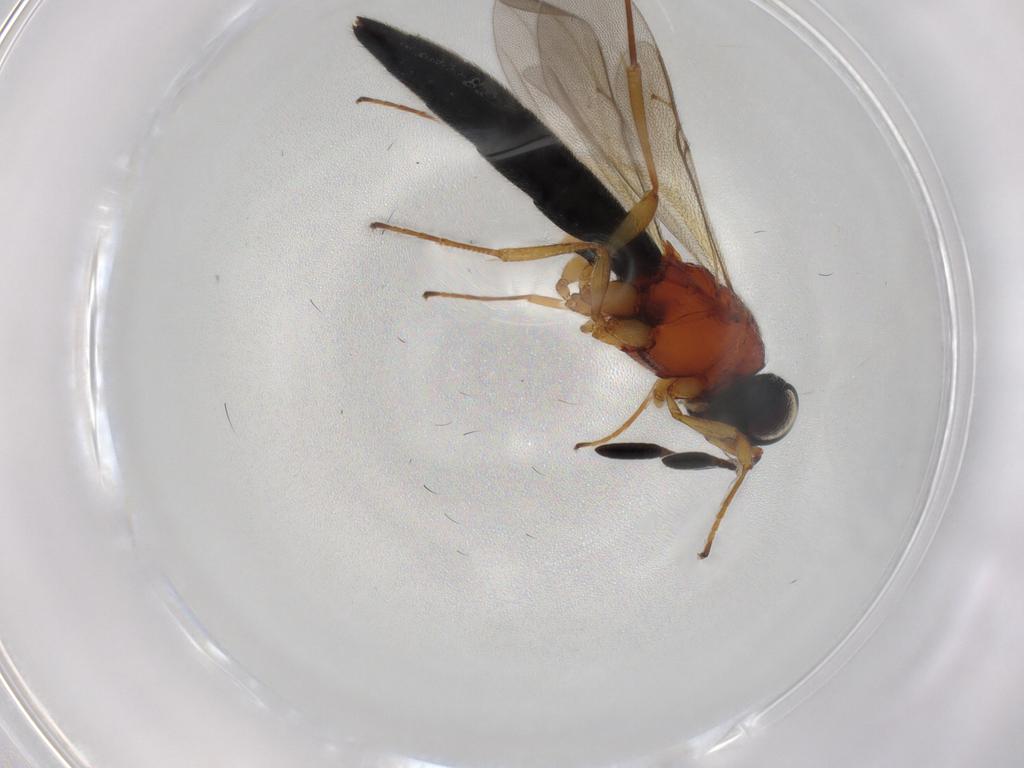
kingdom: Animalia
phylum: Arthropoda
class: Insecta
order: Hymenoptera
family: Scelionidae
